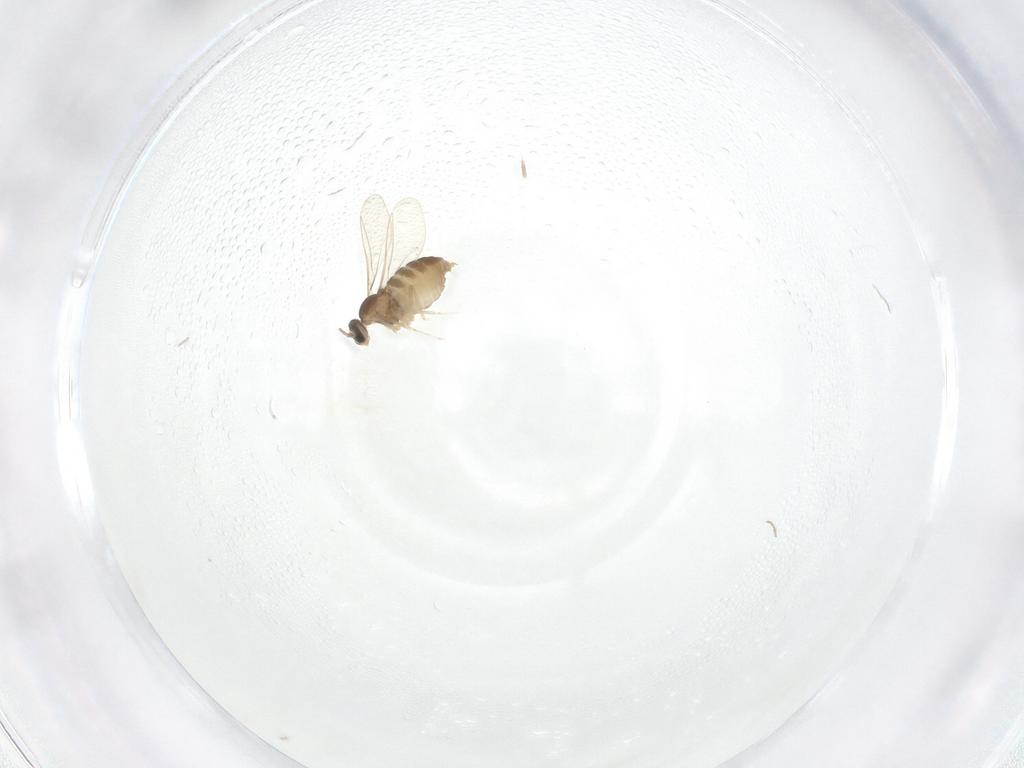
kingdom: Animalia
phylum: Arthropoda
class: Insecta
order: Diptera
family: Cecidomyiidae
